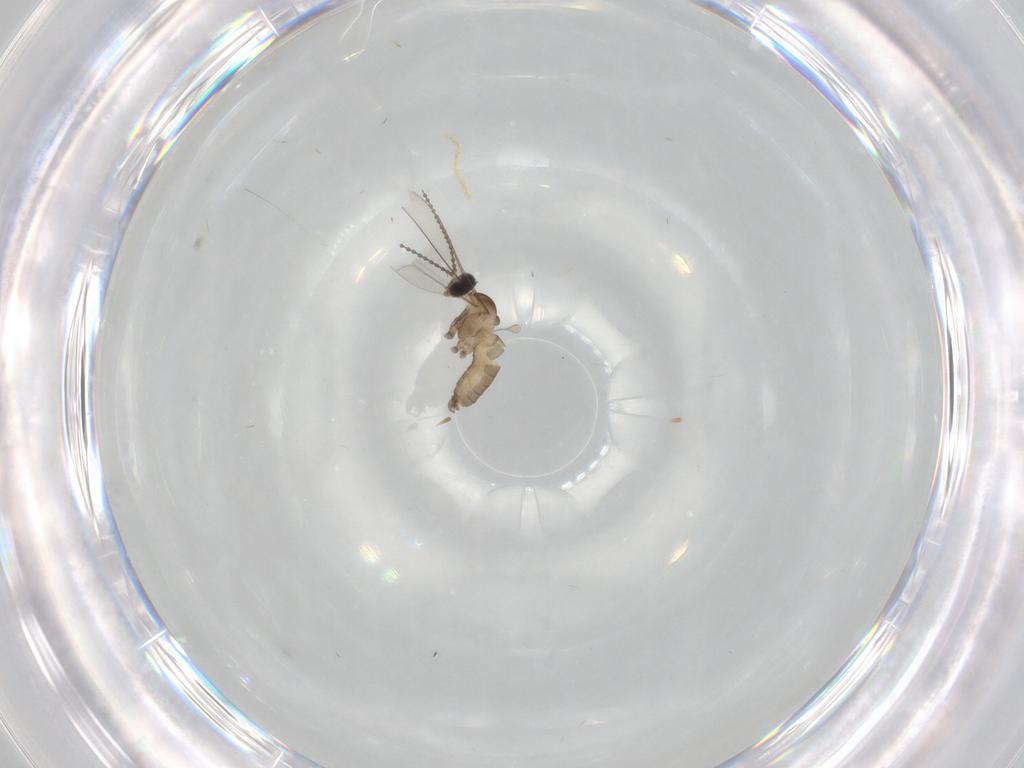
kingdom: Animalia
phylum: Arthropoda
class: Insecta
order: Diptera
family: Cecidomyiidae
